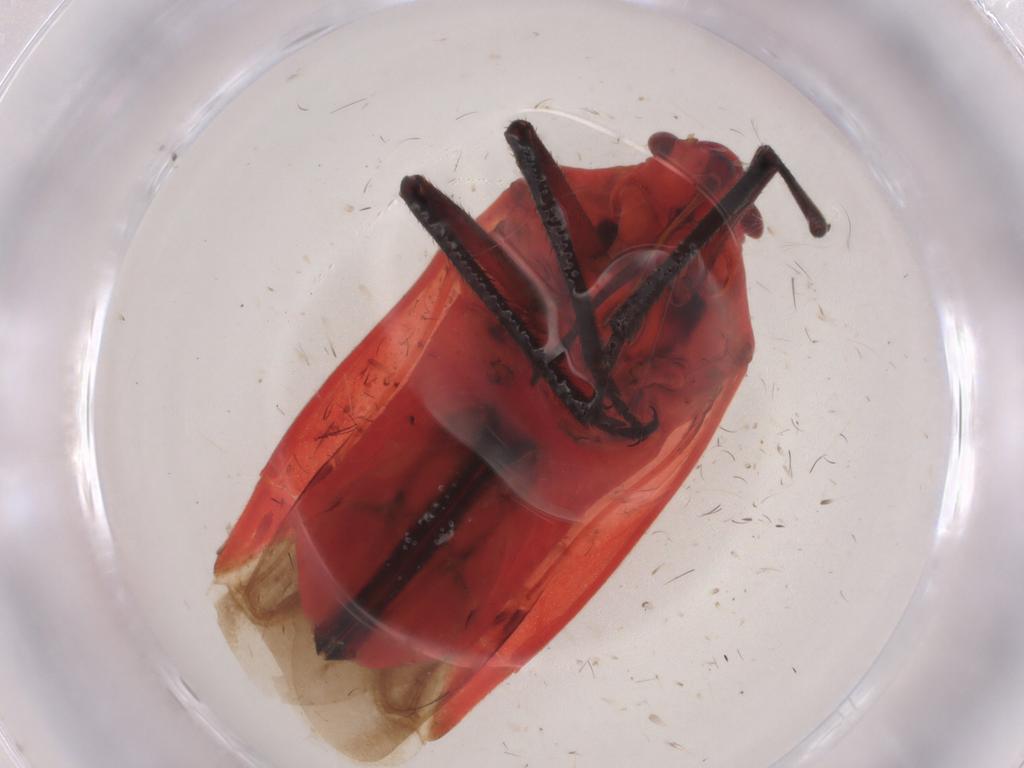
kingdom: Animalia
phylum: Arthropoda
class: Insecta
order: Hemiptera
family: Miridae
